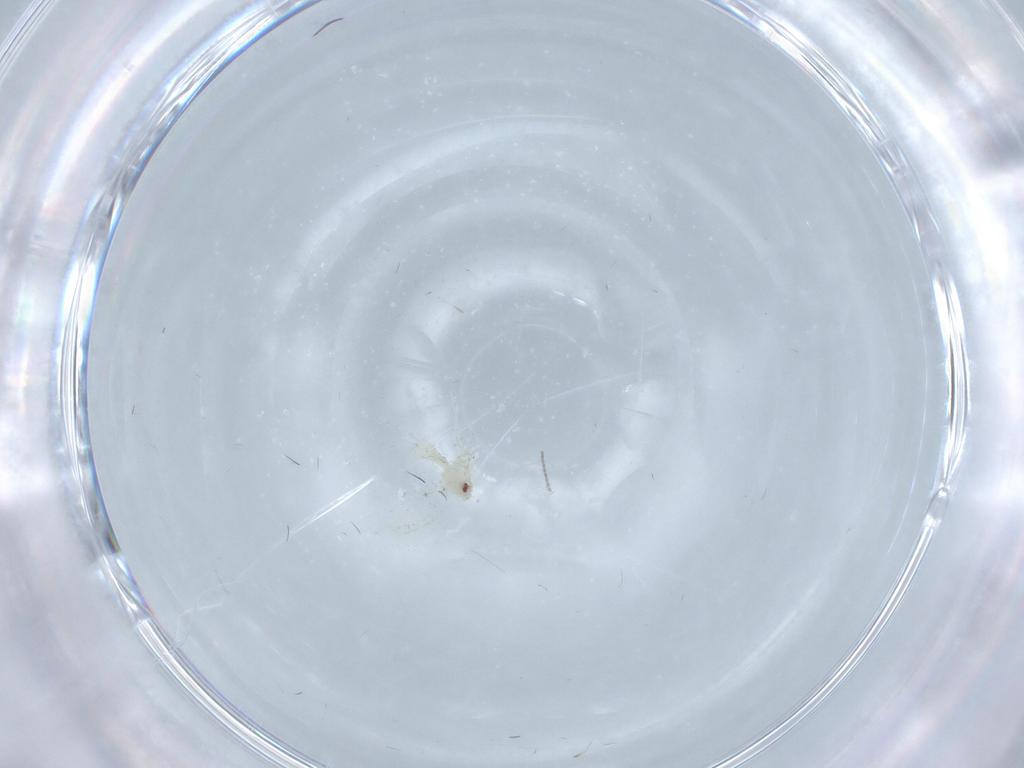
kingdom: Animalia
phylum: Arthropoda
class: Insecta
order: Hemiptera
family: Aleyrodidae
